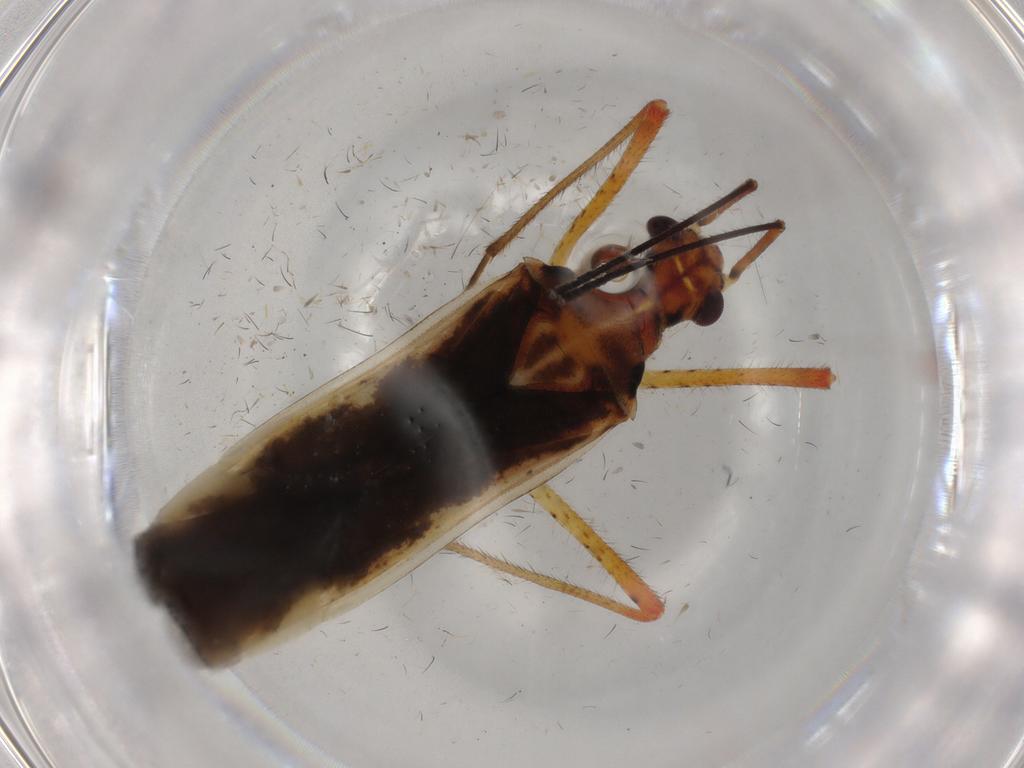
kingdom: Animalia
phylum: Arthropoda
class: Insecta
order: Hemiptera
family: Miridae
